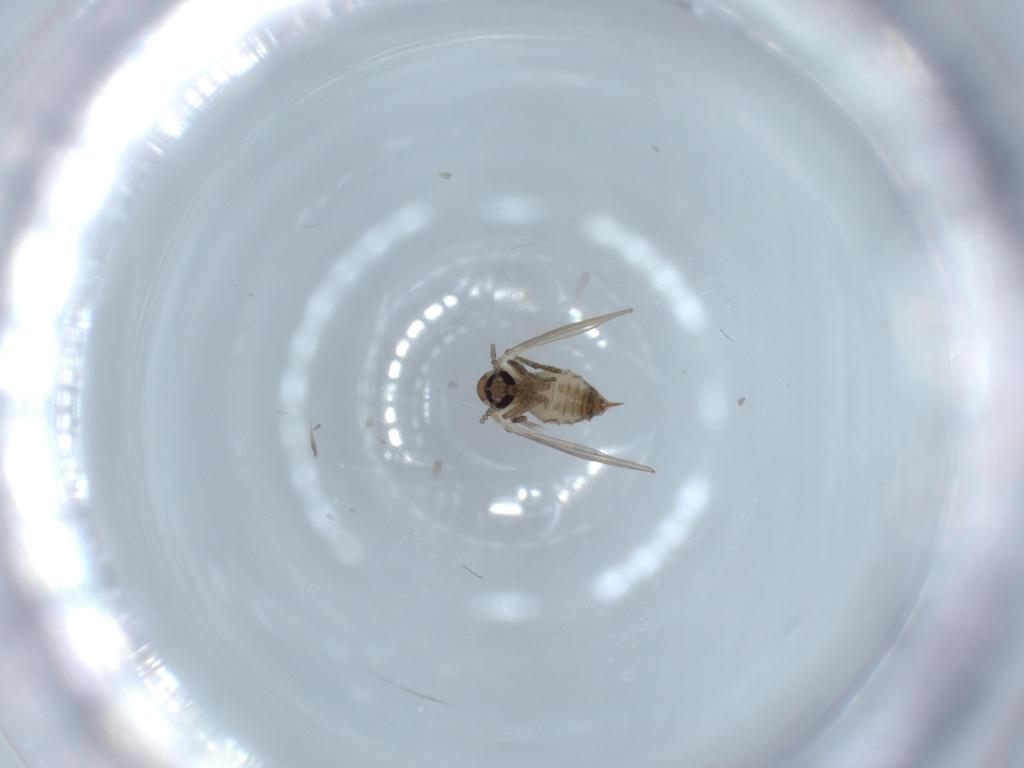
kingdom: Animalia
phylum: Arthropoda
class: Insecta
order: Diptera
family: Psychodidae
